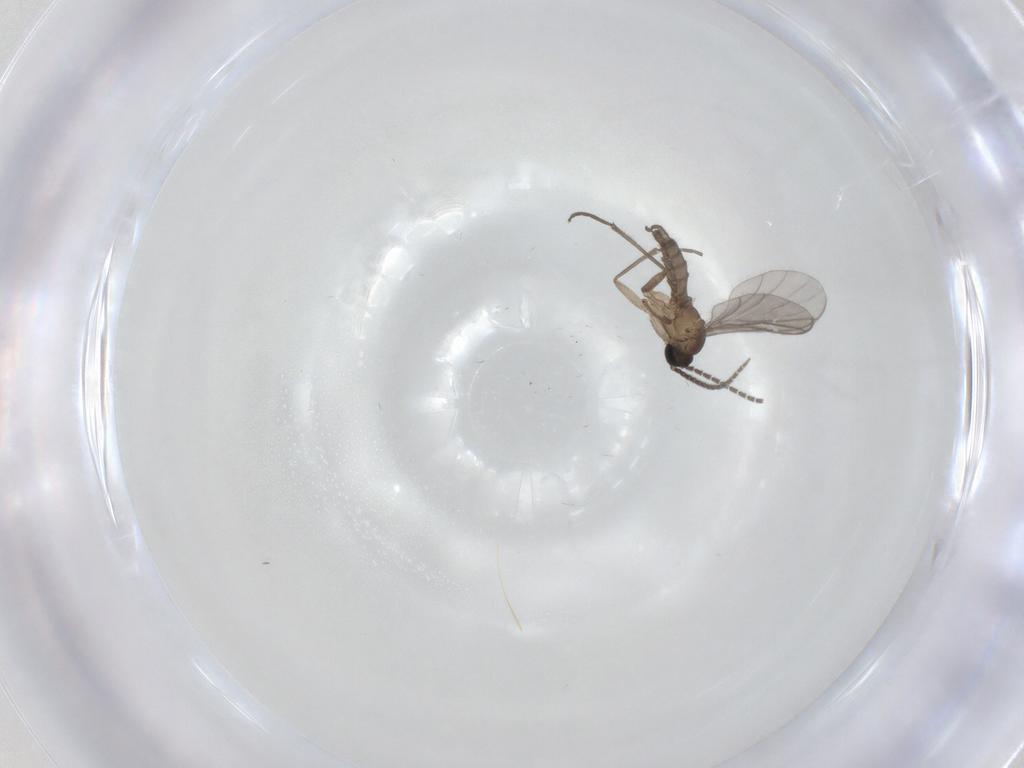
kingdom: Animalia
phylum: Arthropoda
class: Insecta
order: Diptera
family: Sciaridae
